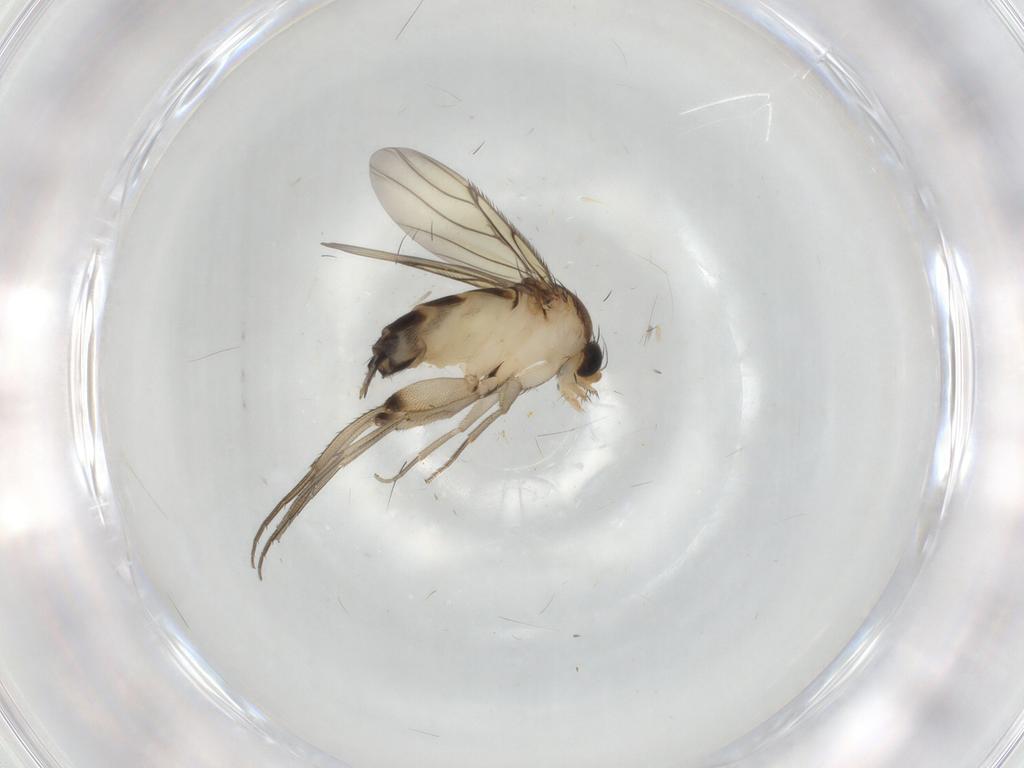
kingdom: Animalia
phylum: Arthropoda
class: Insecta
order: Diptera
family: Phoridae
